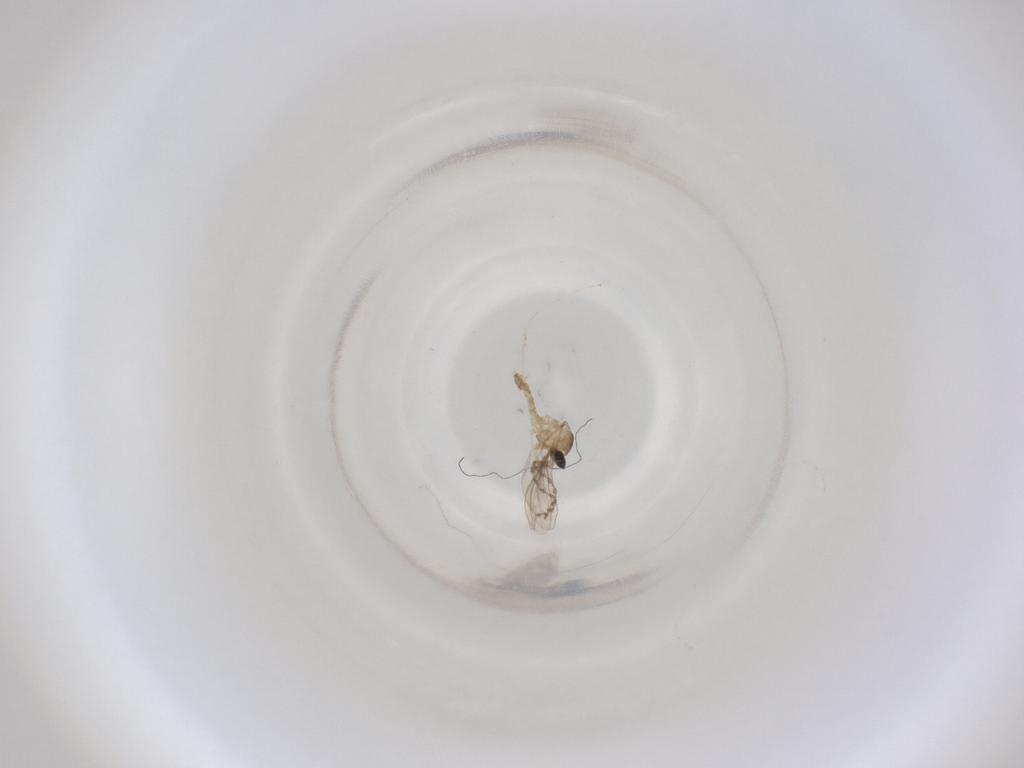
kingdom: Animalia
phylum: Arthropoda
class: Insecta
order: Diptera
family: Cecidomyiidae
